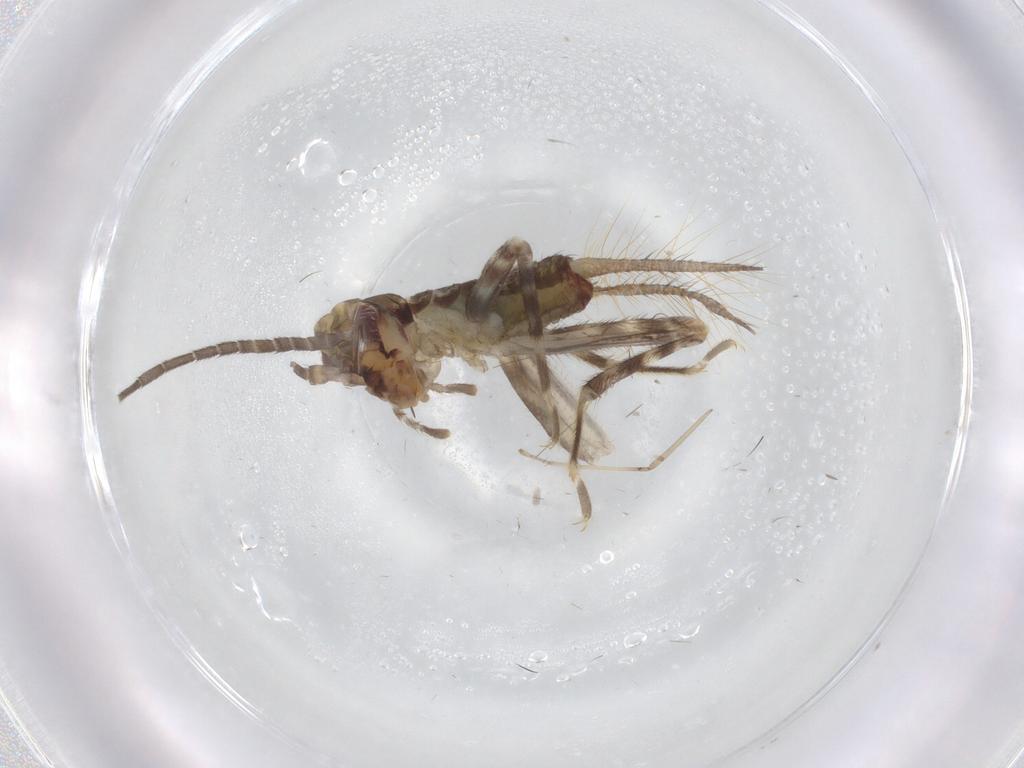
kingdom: Animalia
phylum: Arthropoda
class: Insecta
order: Orthoptera
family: Gryllidae
